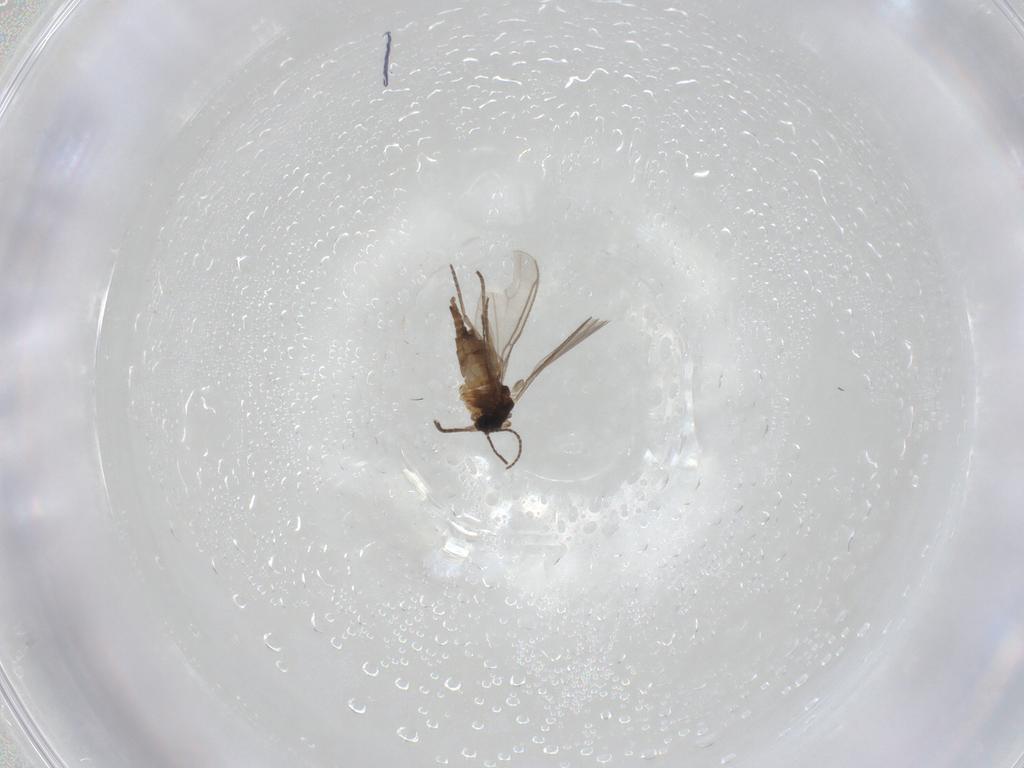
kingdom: Animalia
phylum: Arthropoda
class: Insecta
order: Diptera
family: Sciaridae
